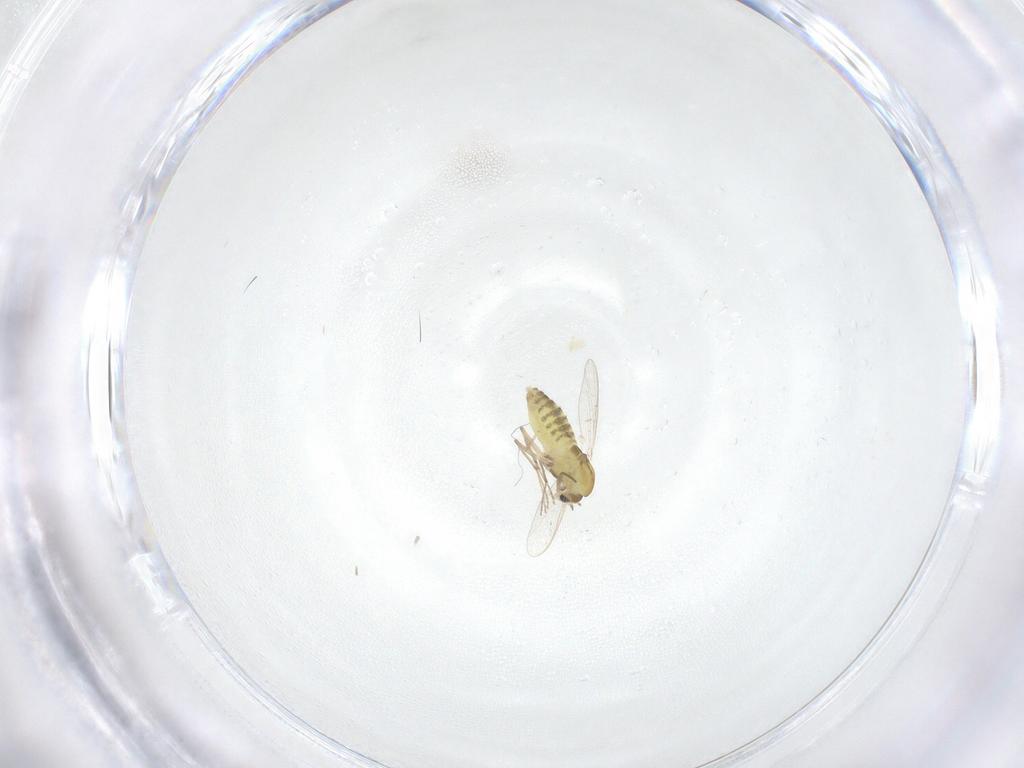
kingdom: Animalia
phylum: Arthropoda
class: Insecta
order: Diptera
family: Chironomidae
